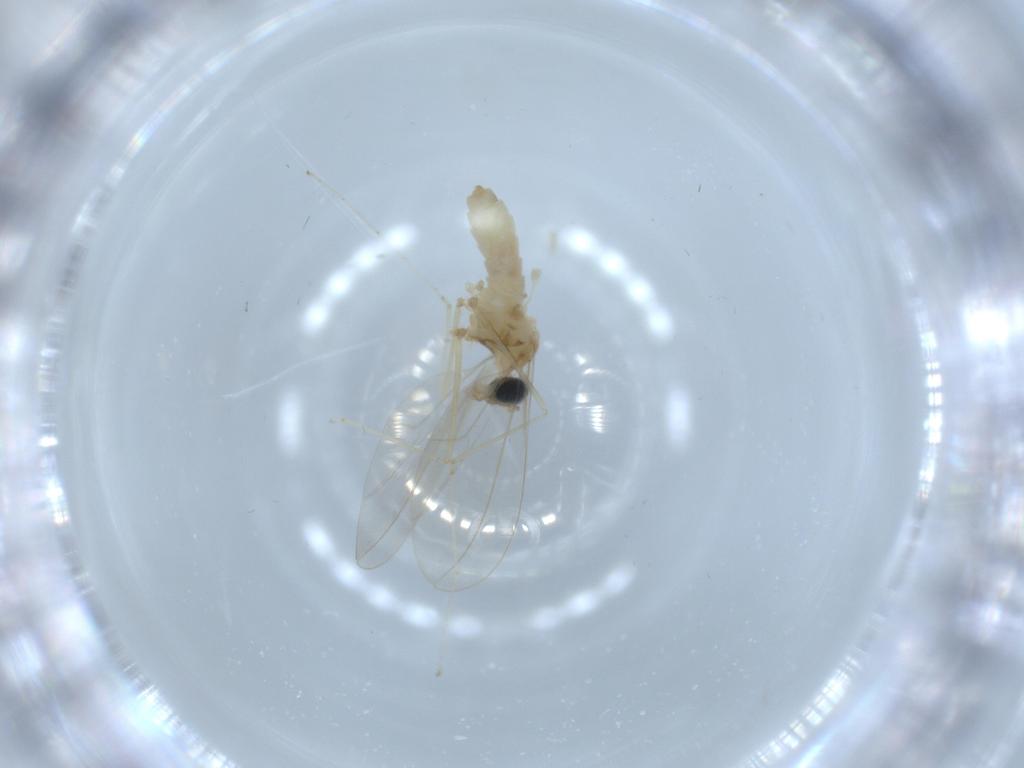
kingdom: Animalia
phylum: Arthropoda
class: Insecta
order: Diptera
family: Cecidomyiidae
